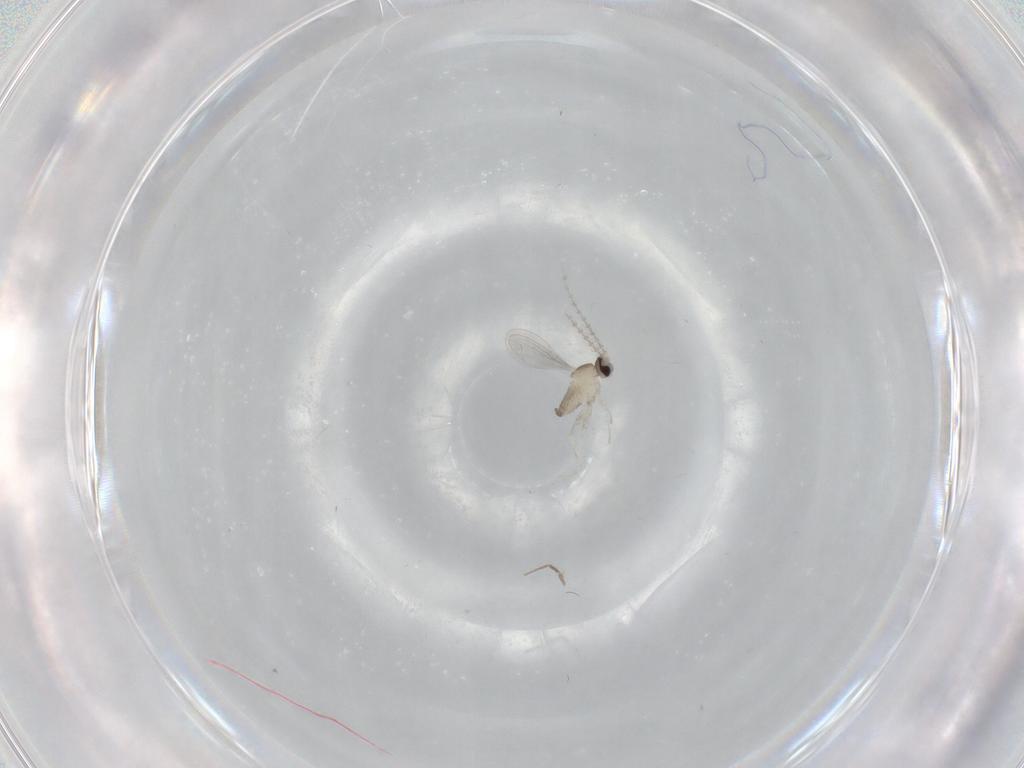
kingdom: Animalia
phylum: Arthropoda
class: Insecta
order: Diptera
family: Cecidomyiidae
